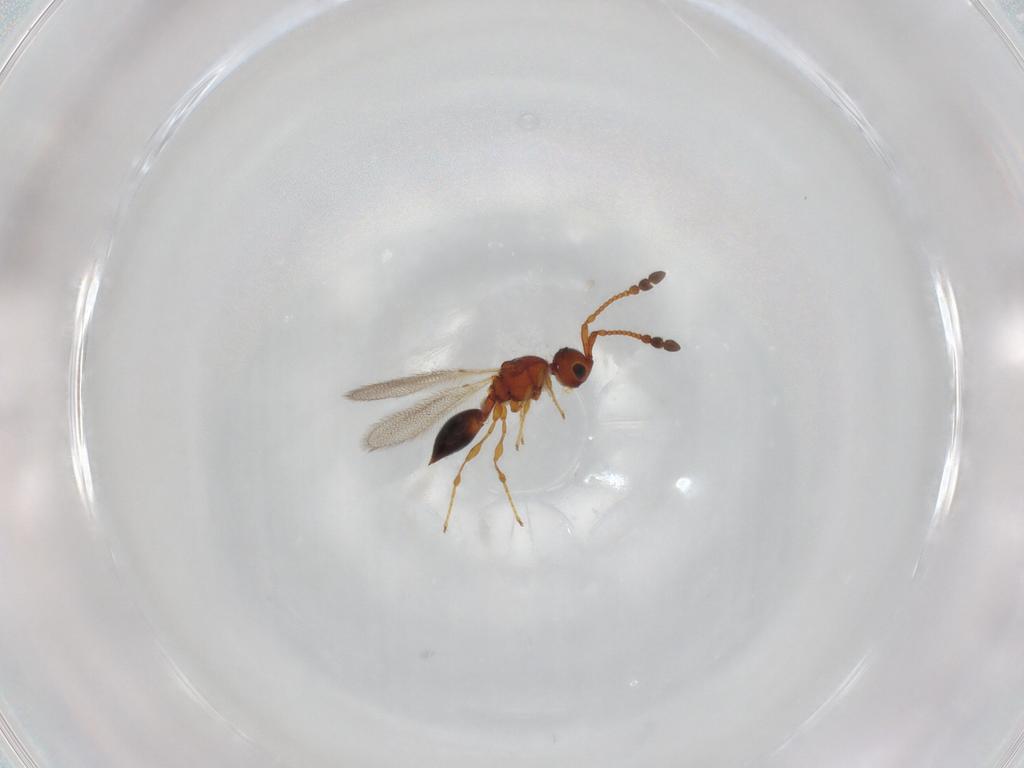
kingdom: Animalia
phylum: Arthropoda
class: Insecta
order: Hymenoptera
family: Diapriidae
